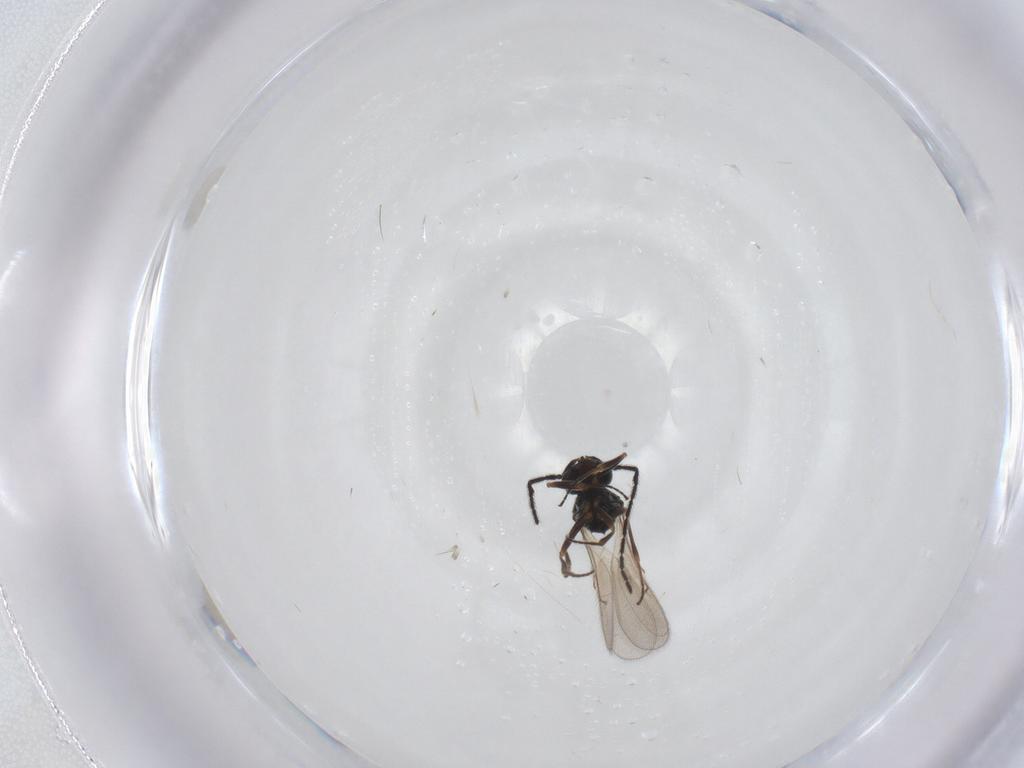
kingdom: Animalia
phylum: Arthropoda
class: Insecta
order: Hymenoptera
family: Scelionidae
